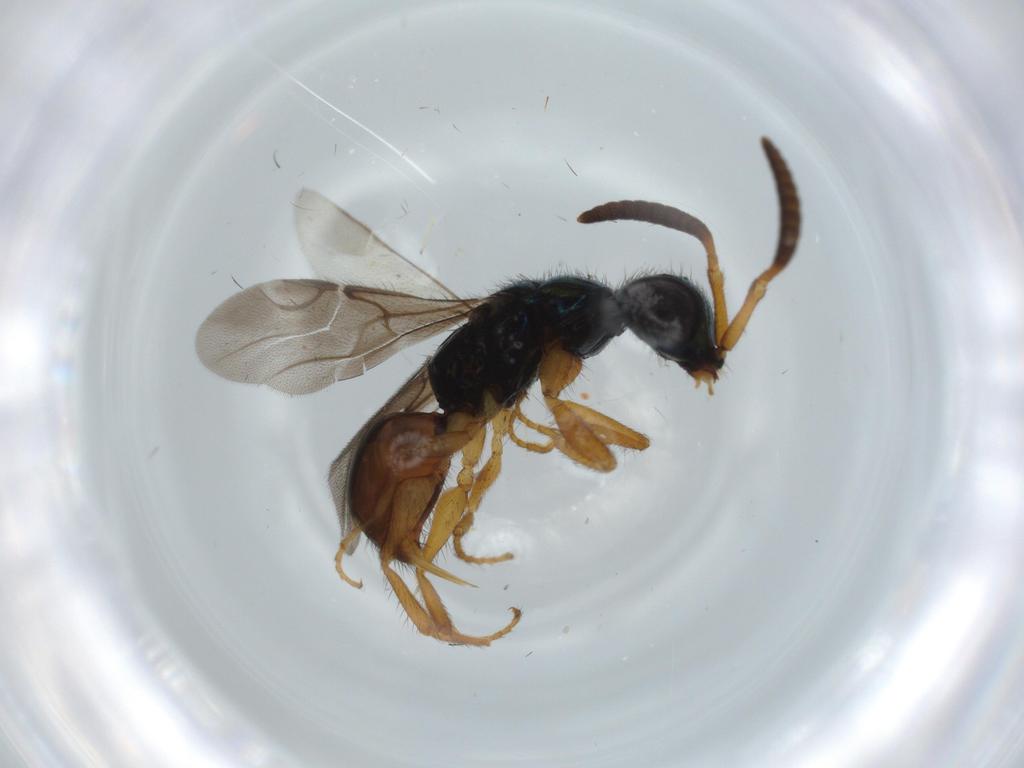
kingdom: Animalia
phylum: Arthropoda
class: Insecta
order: Hymenoptera
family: Chrysididae
